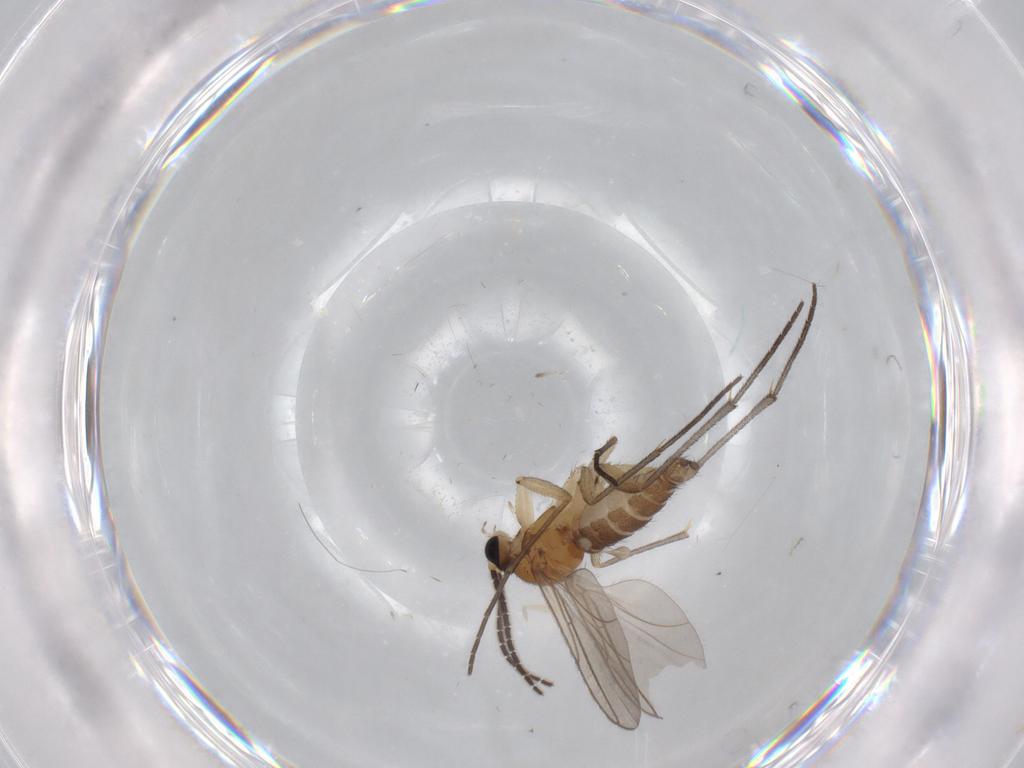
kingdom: Animalia
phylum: Arthropoda
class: Insecta
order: Diptera
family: Sciaridae
